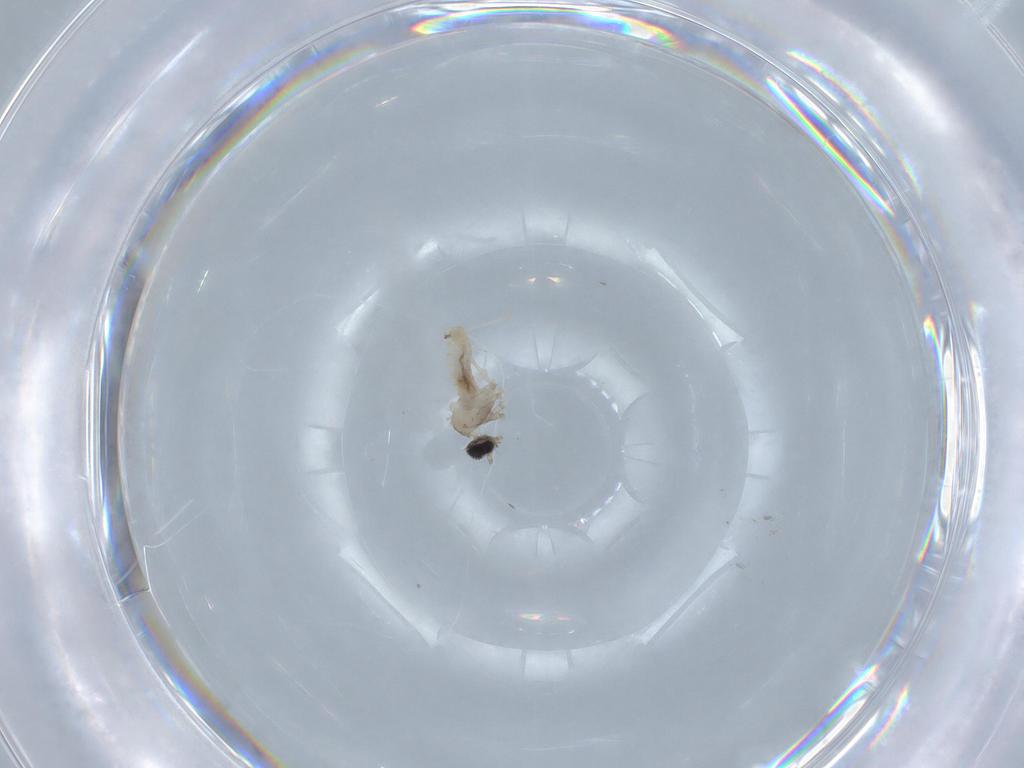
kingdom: Animalia
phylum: Arthropoda
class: Insecta
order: Diptera
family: Cecidomyiidae
